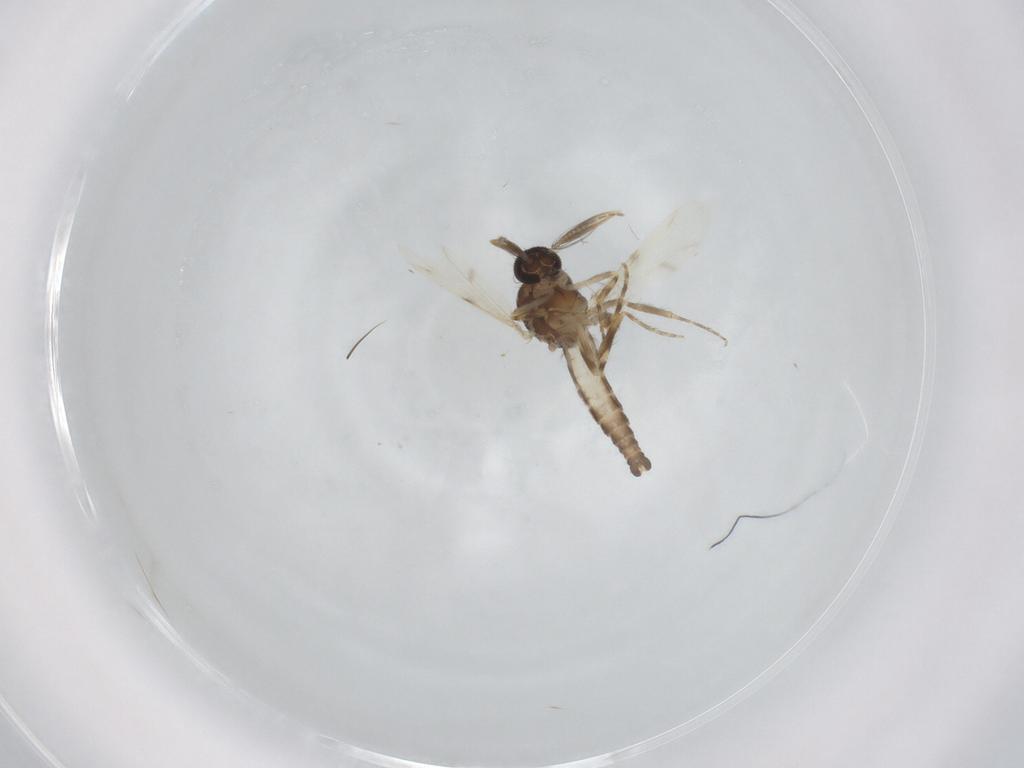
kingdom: Animalia
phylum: Arthropoda
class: Insecta
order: Diptera
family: Ceratopogonidae
